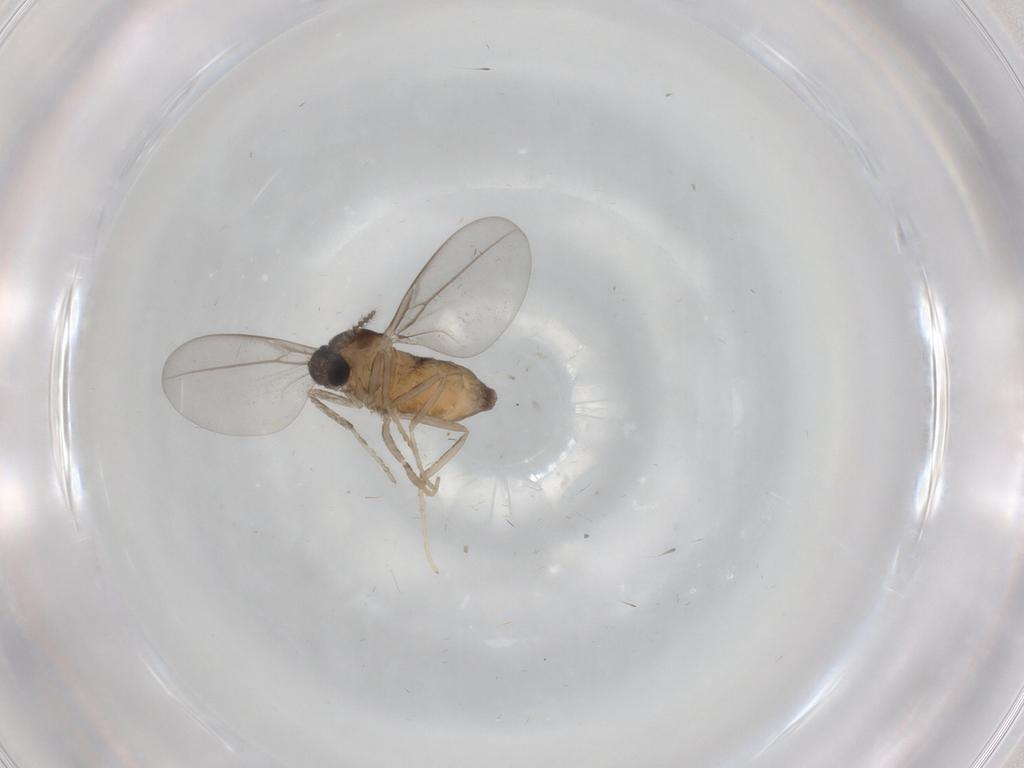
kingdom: Animalia
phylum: Arthropoda
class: Insecta
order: Diptera
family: Cecidomyiidae
